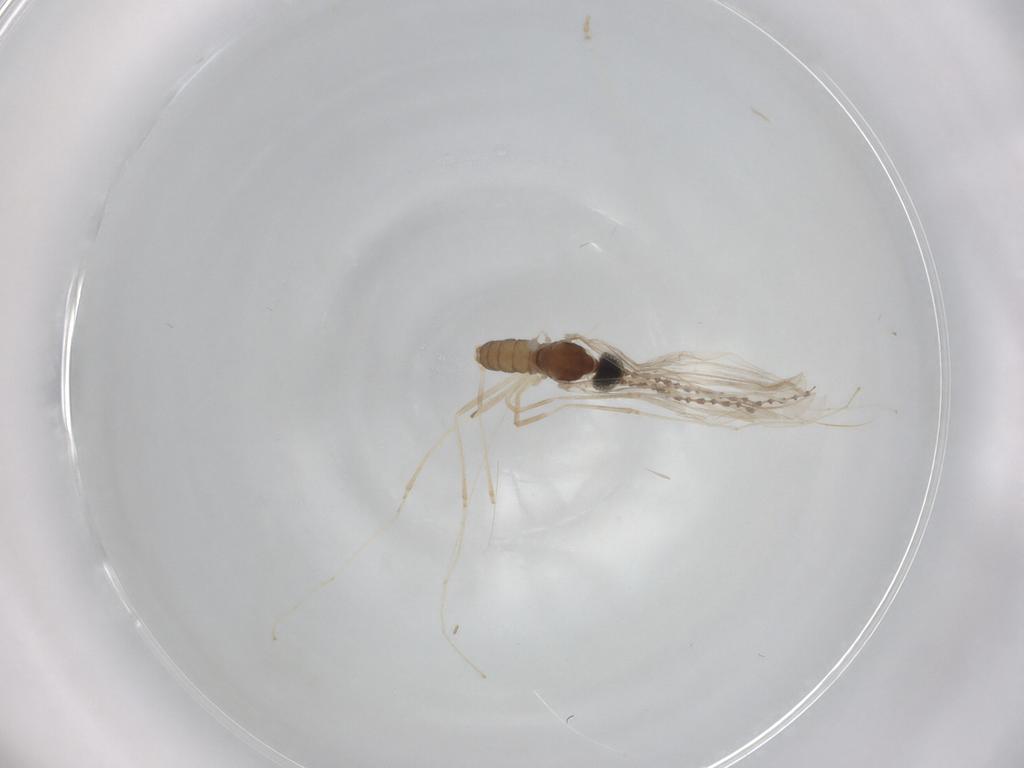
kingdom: Animalia
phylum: Arthropoda
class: Insecta
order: Diptera
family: Cecidomyiidae
